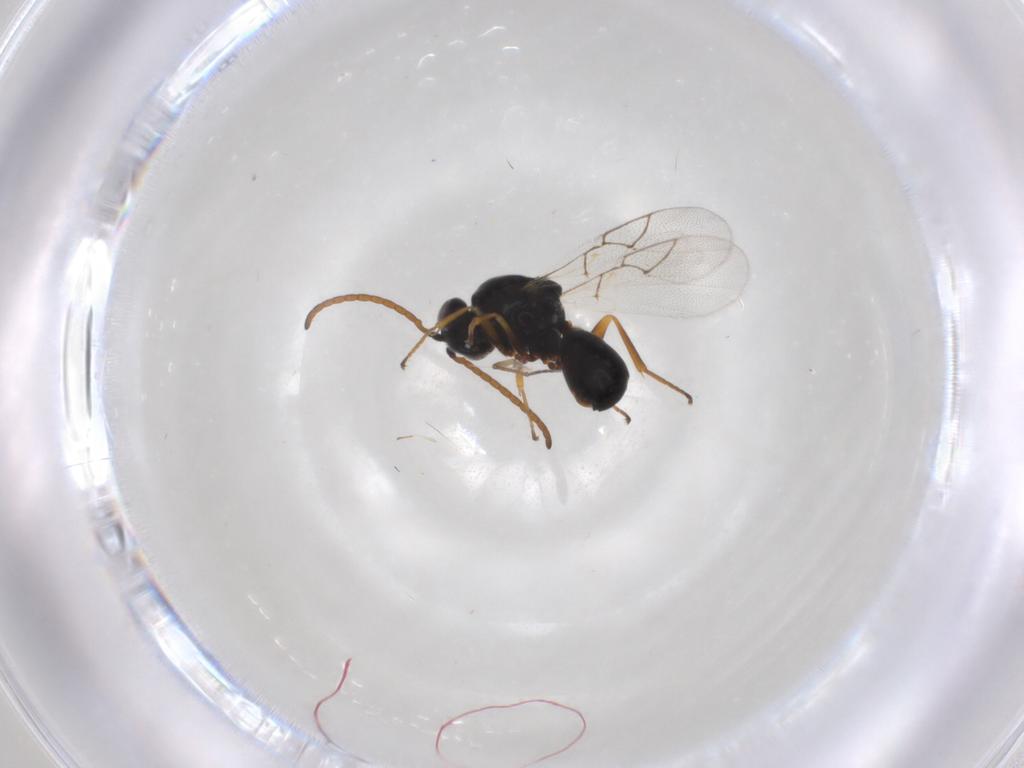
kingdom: Animalia
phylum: Arthropoda
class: Insecta
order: Hymenoptera
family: Figitidae
